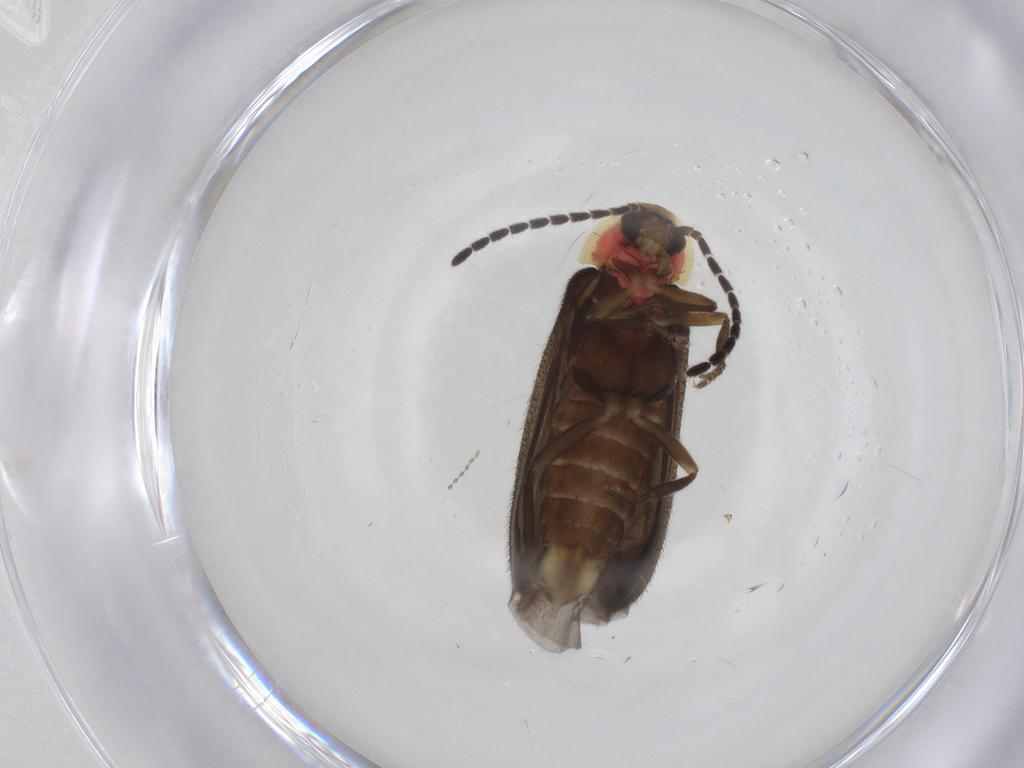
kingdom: Animalia
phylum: Arthropoda
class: Insecta
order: Coleoptera
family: Lampyridae
